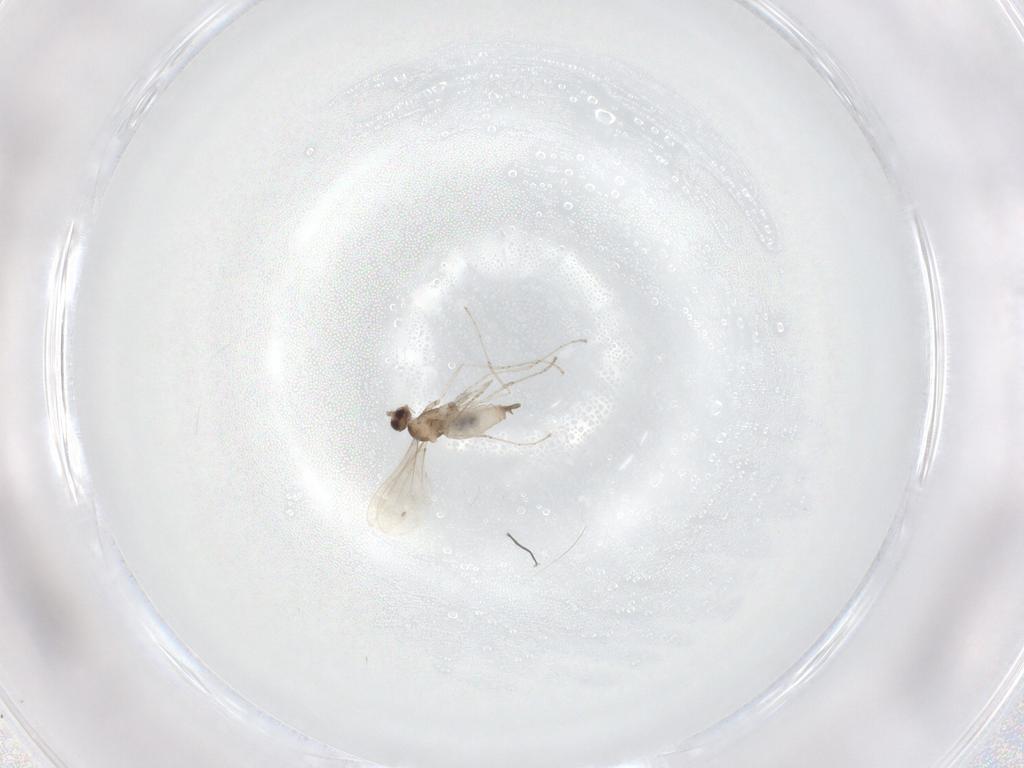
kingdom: Animalia
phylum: Arthropoda
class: Insecta
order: Diptera
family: Cecidomyiidae
